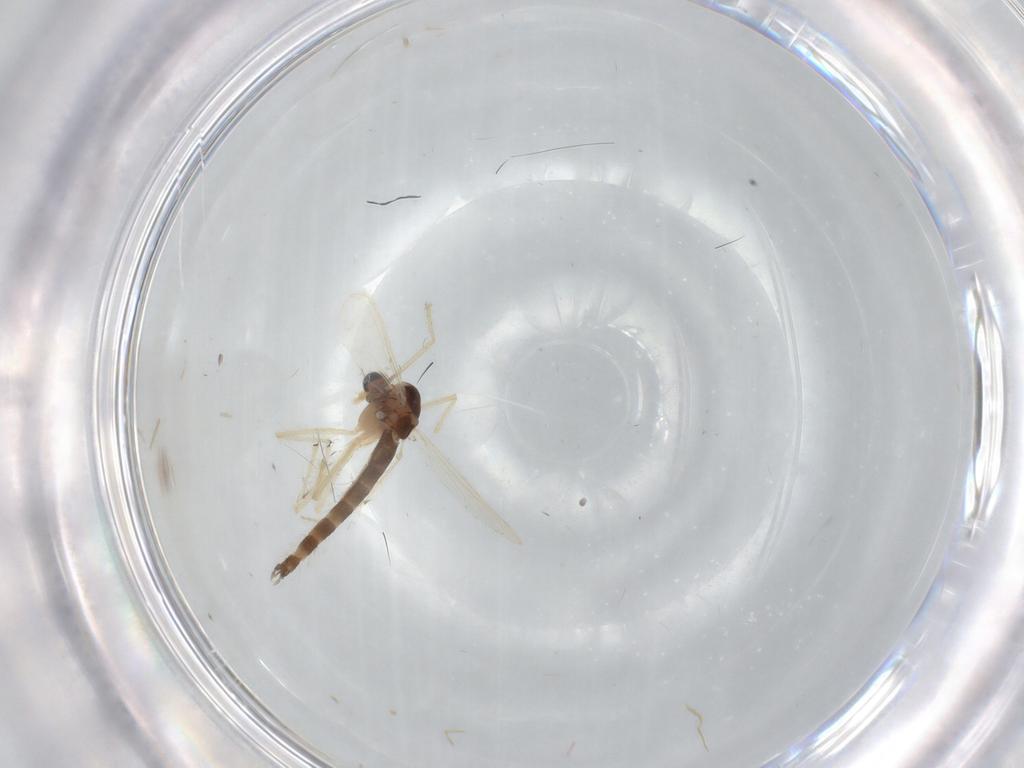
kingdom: Animalia
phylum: Arthropoda
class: Insecta
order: Diptera
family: Chironomidae
